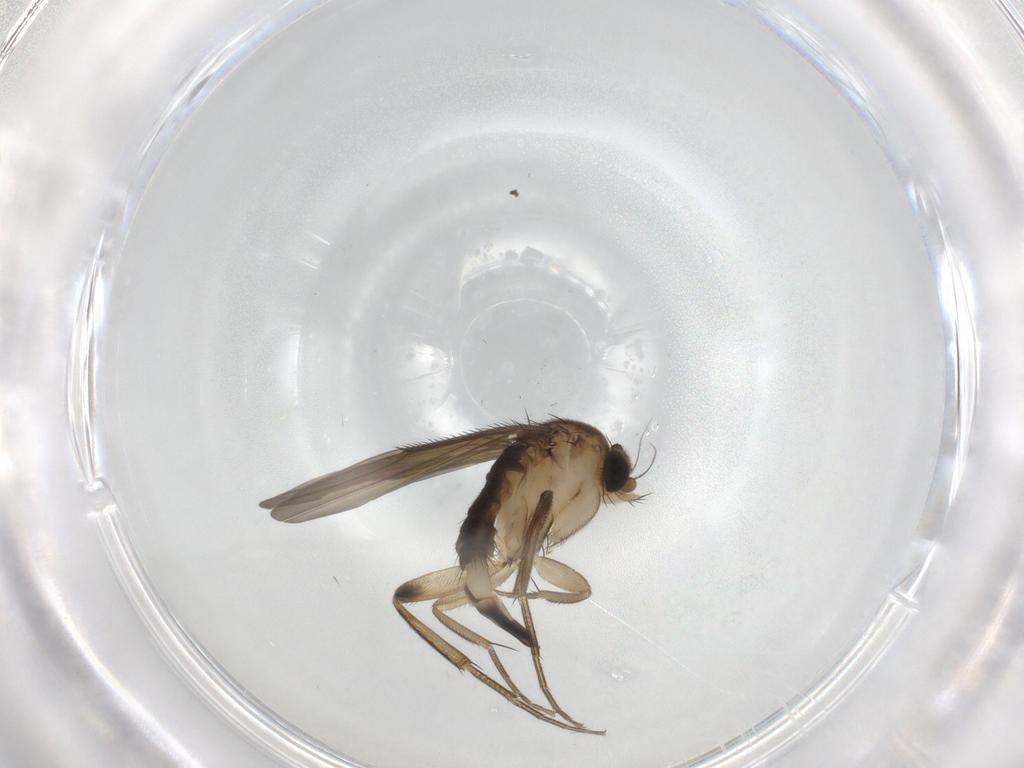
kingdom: Animalia
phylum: Arthropoda
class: Insecta
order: Diptera
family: Phoridae
